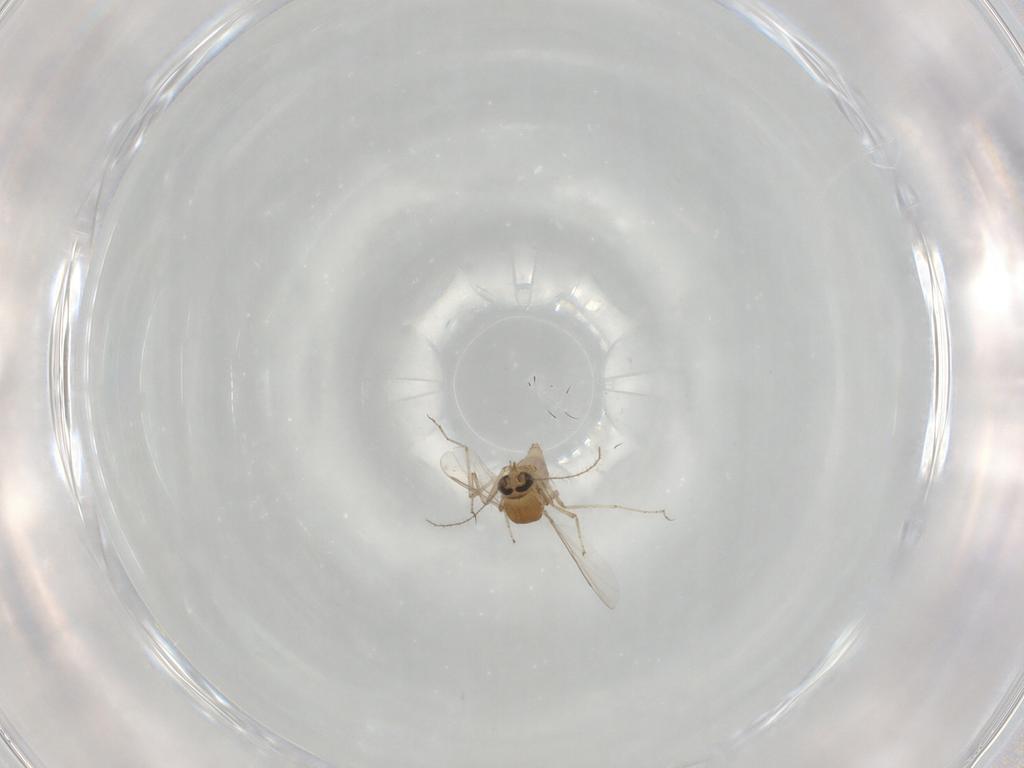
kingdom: Animalia
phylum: Arthropoda
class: Insecta
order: Diptera
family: Ceratopogonidae
